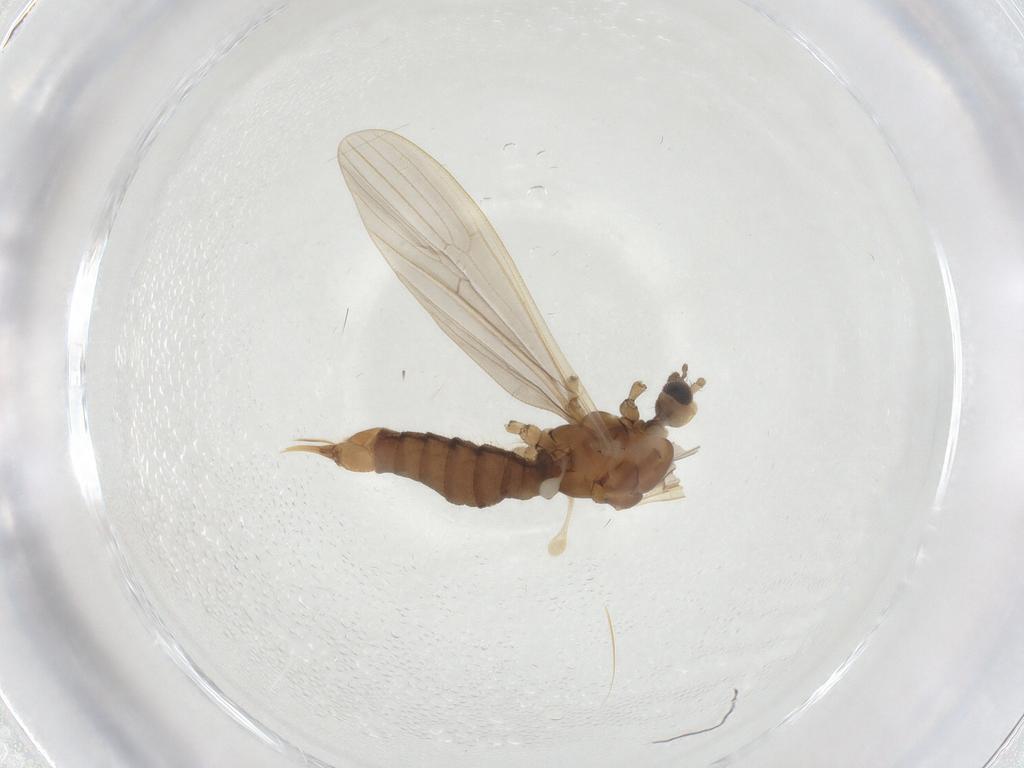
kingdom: Animalia
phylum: Arthropoda
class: Insecta
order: Diptera
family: Limoniidae
